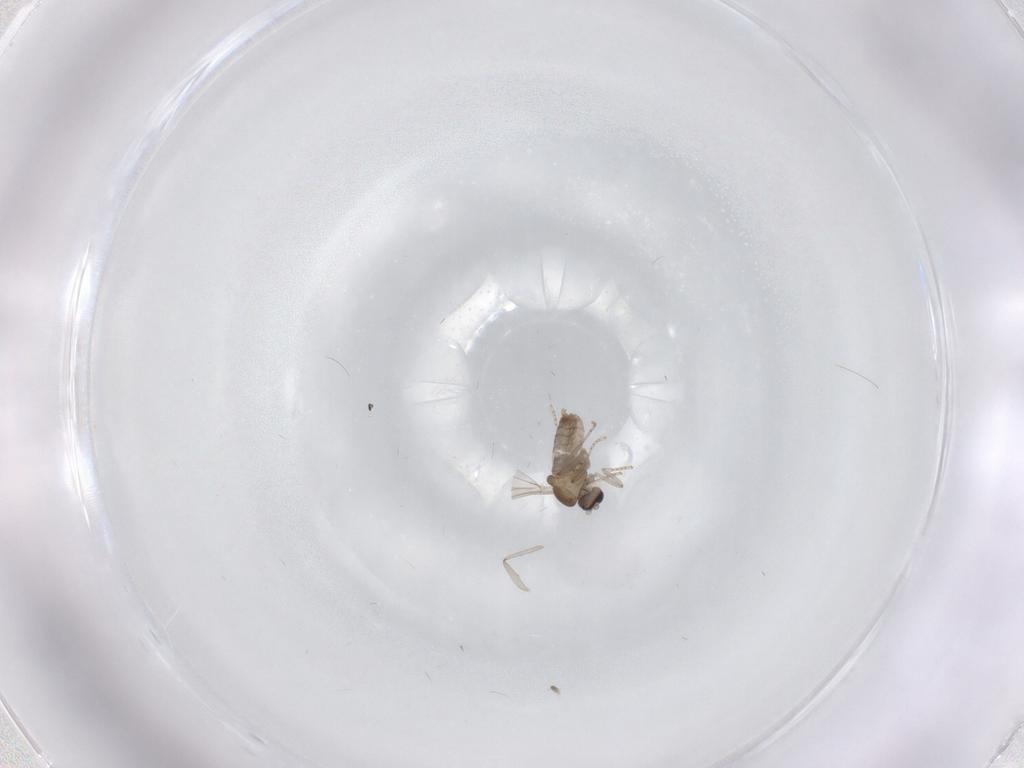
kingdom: Animalia
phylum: Arthropoda
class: Insecta
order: Diptera
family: Cecidomyiidae
